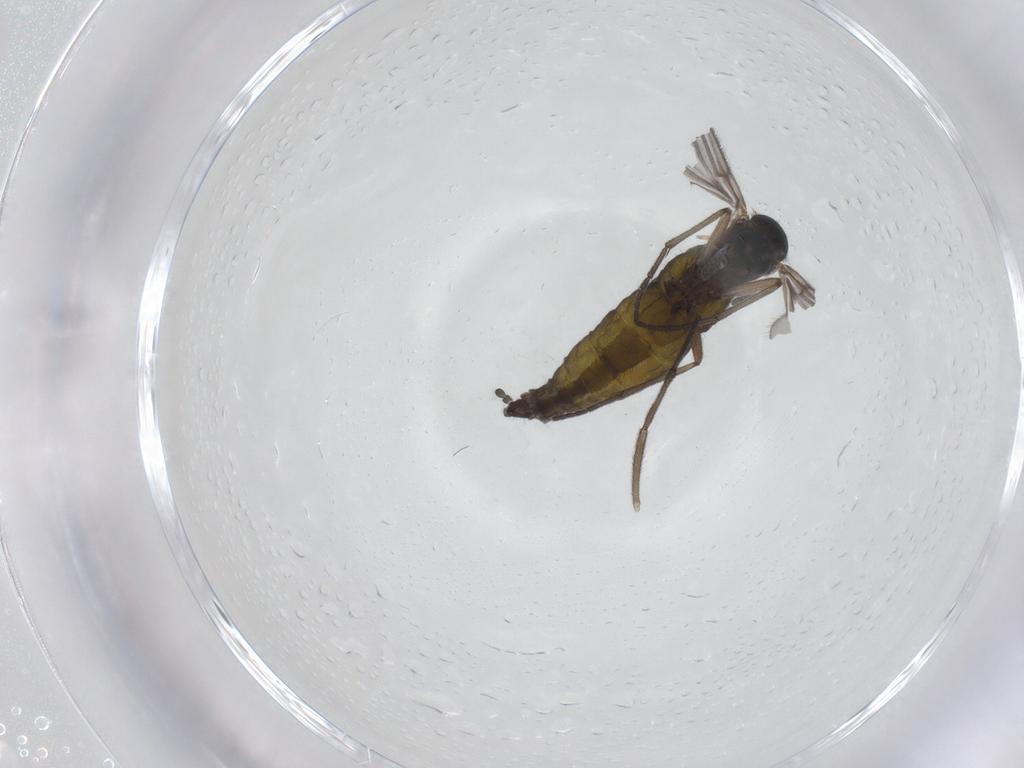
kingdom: Animalia
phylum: Arthropoda
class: Insecta
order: Diptera
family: Sciaridae
